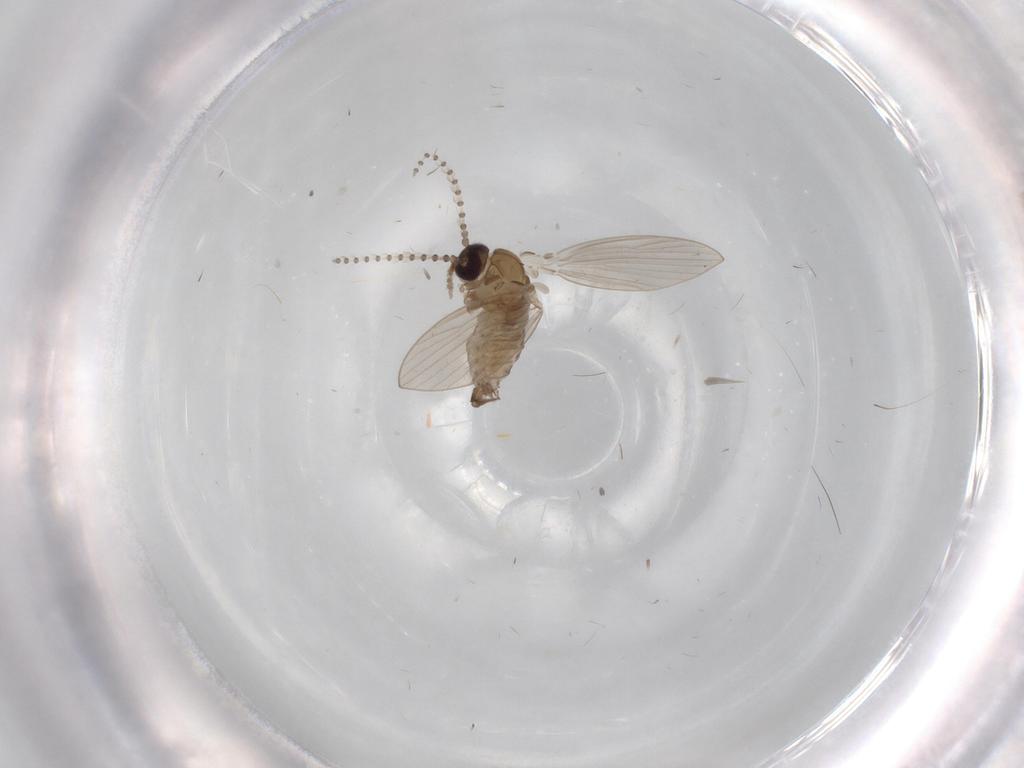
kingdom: Animalia
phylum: Arthropoda
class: Insecta
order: Diptera
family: Psychodidae
